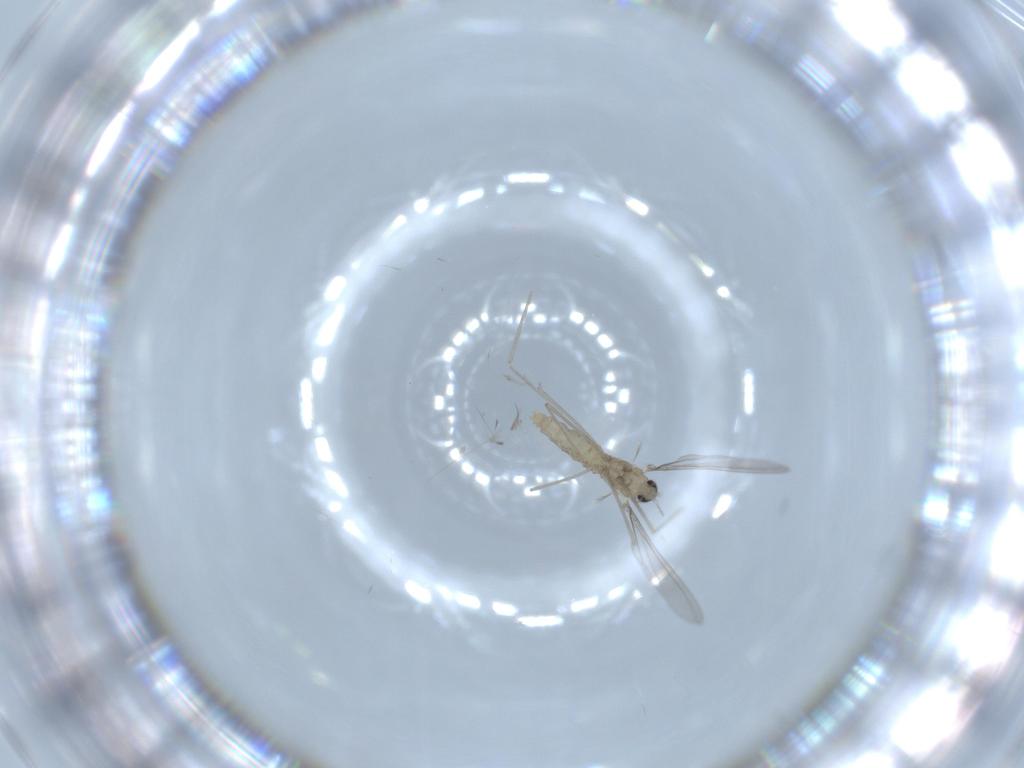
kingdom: Animalia
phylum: Arthropoda
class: Insecta
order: Diptera
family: Cecidomyiidae
